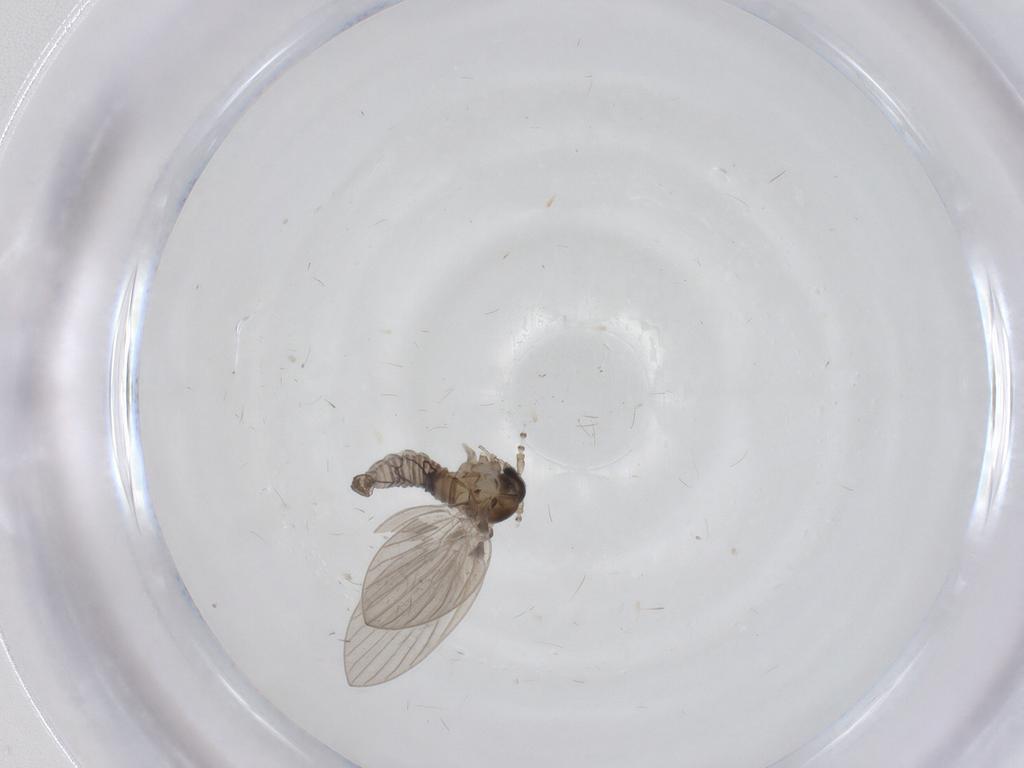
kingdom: Animalia
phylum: Arthropoda
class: Insecta
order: Diptera
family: Psychodidae
